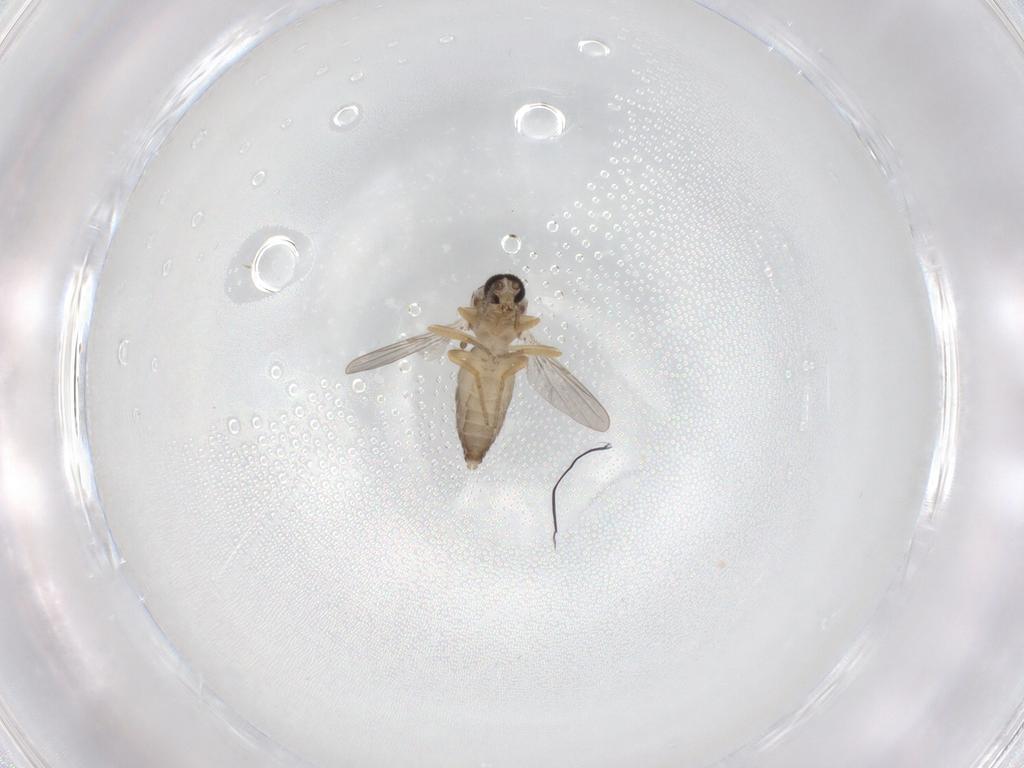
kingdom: Animalia
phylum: Arthropoda
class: Insecta
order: Diptera
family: Ceratopogonidae
